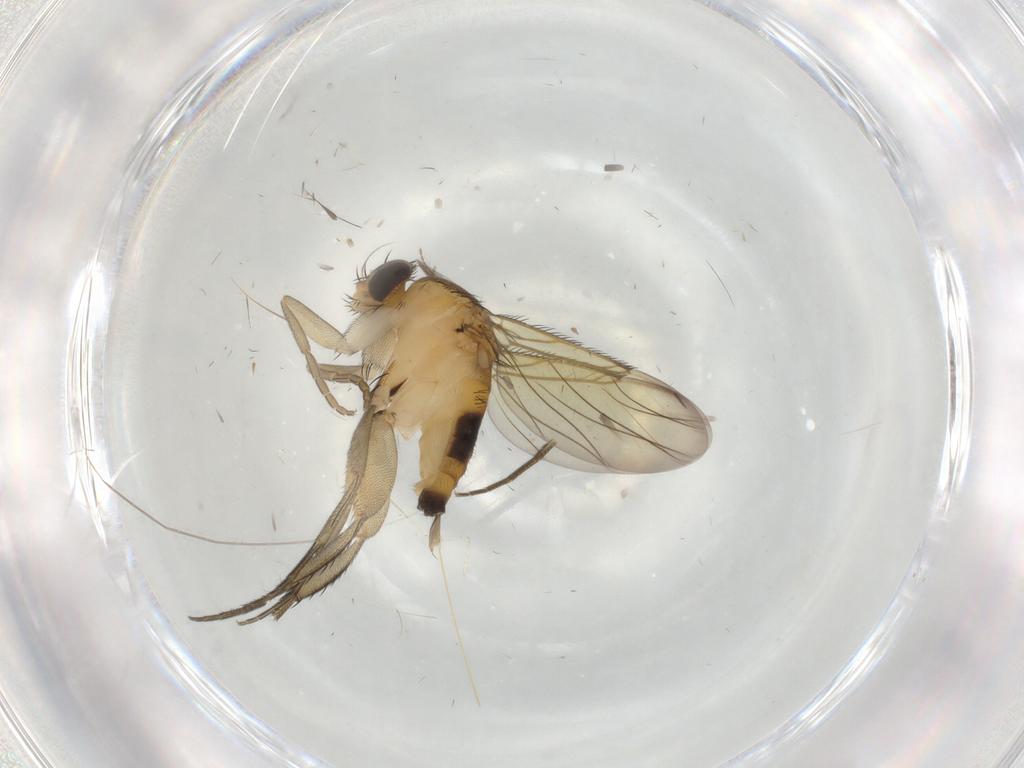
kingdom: Animalia
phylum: Arthropoda
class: Insecta
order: Diptera
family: Phoridae
